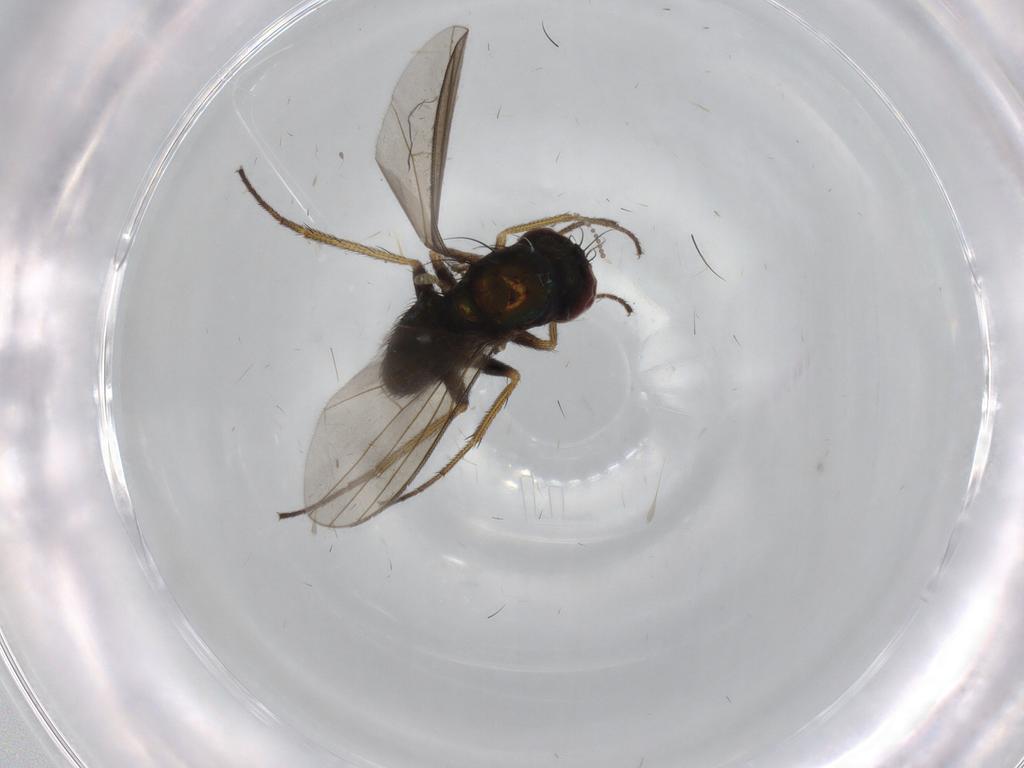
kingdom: Animalia
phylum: Arthropoda
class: Insecta
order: Diptera
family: Dolichopodidae
